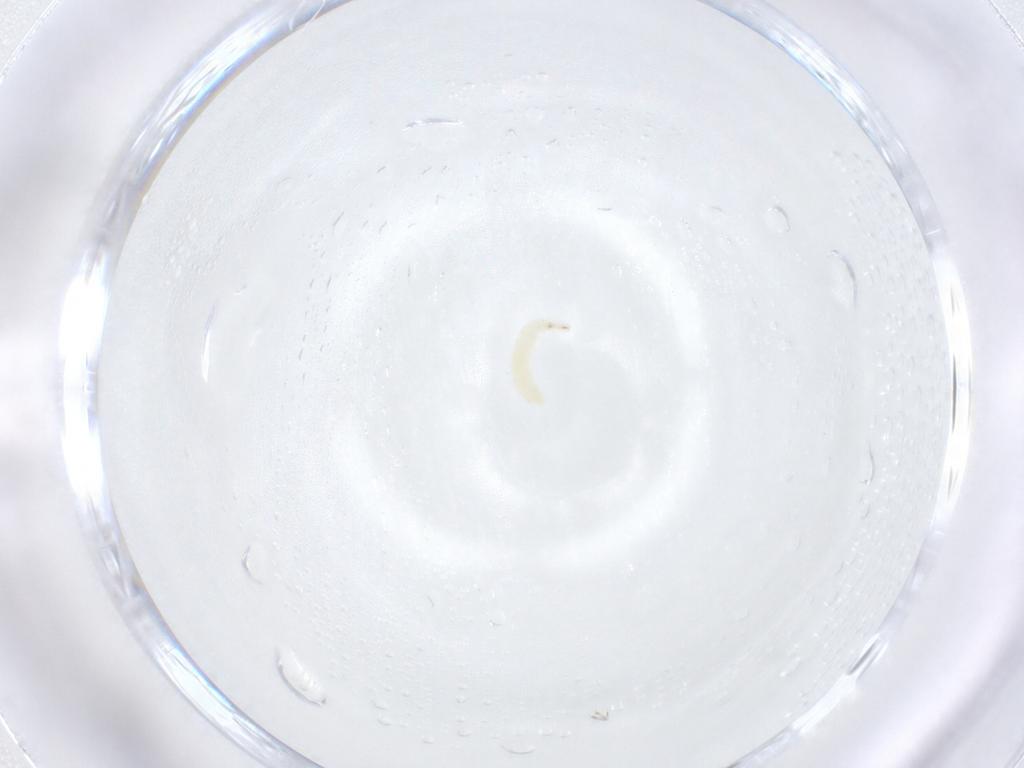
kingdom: Animalia
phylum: Arthropoda
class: Insecta
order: Diptera
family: Sarcophagidae
